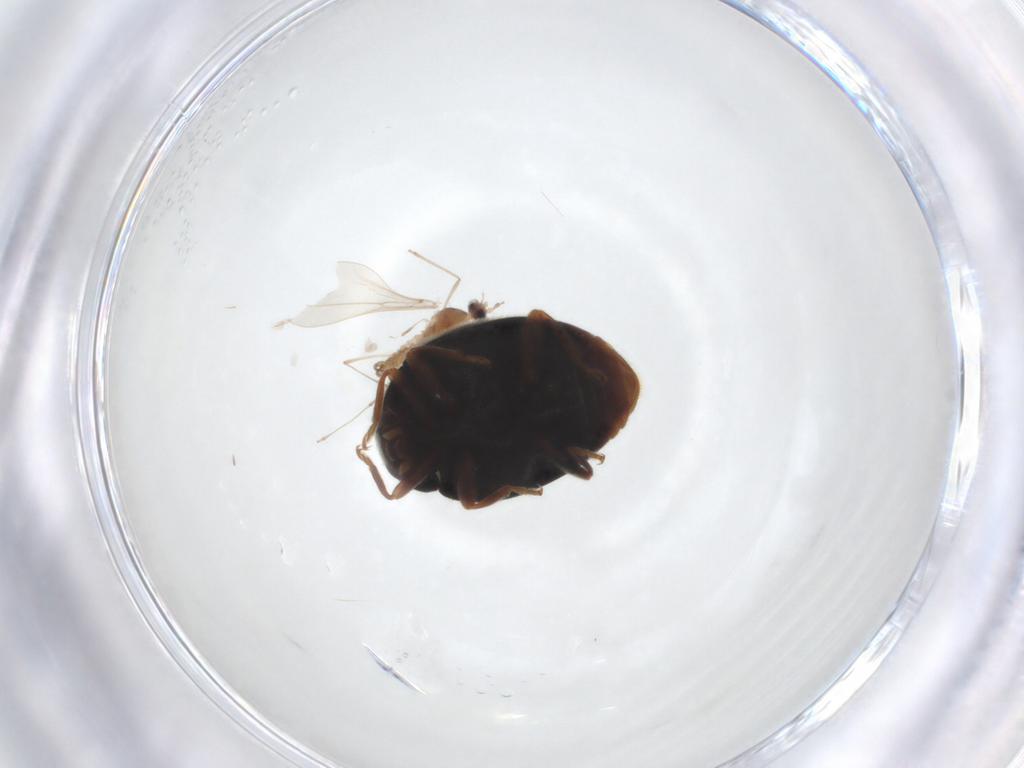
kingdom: Animalia
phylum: Arthropoda
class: Insecta
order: Coleoptera
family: Coccinellidae
